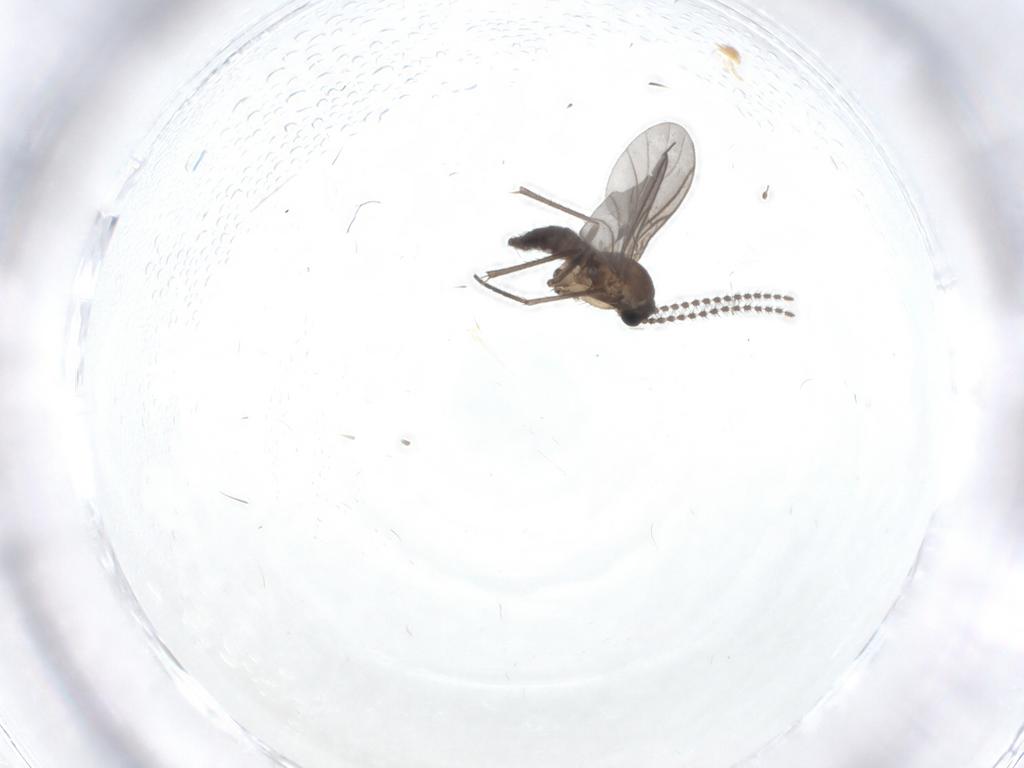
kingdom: Animalia
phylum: Arthropoda
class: Insecta
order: Diptera
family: Sciaridae
